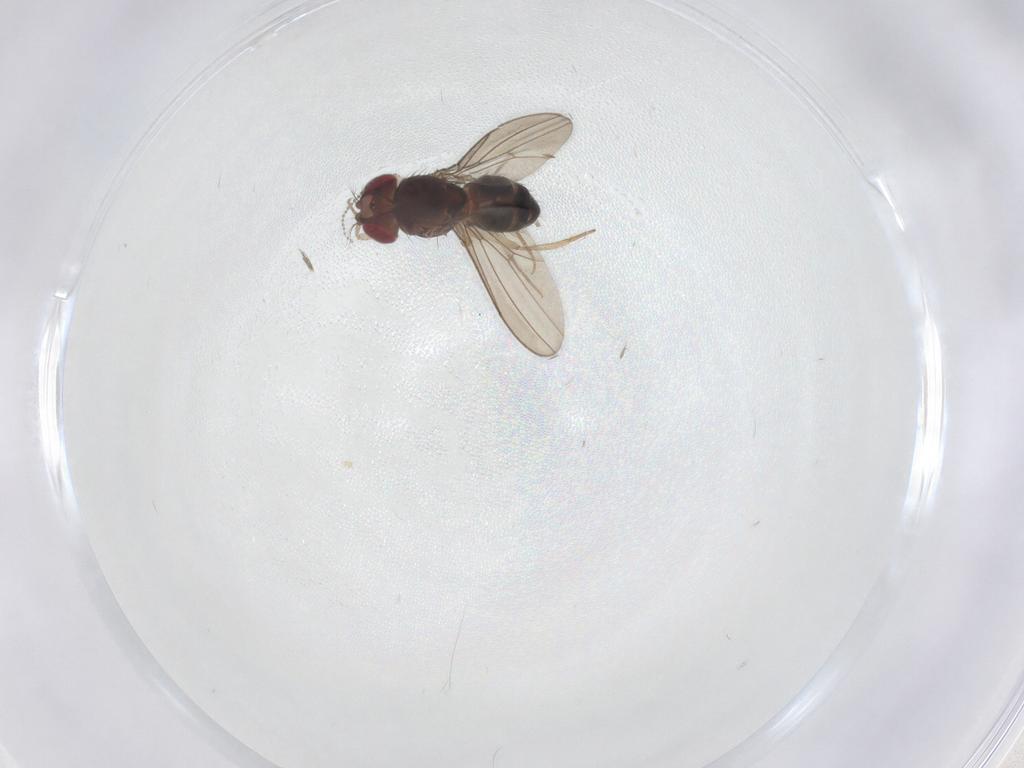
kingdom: Animalia
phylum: Arthropoda
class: Insecta
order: Diptera
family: Drosophilidae
